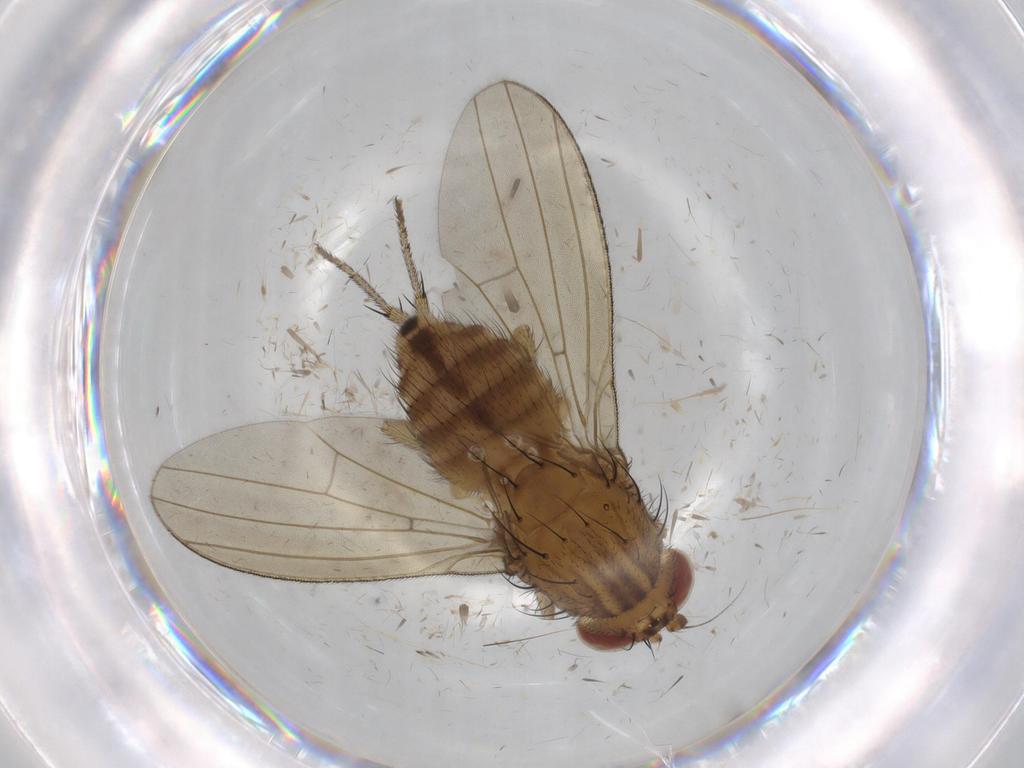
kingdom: Animalia
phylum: Arthropoda
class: Insecta
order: Diptera
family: Phoridae
